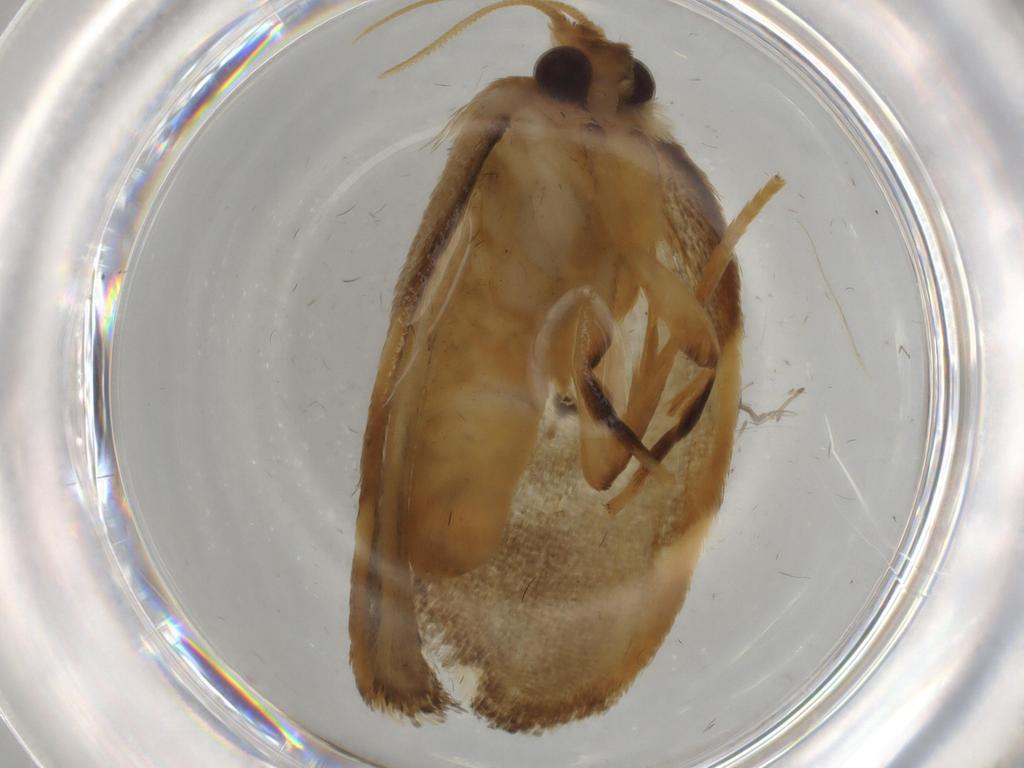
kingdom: Animalia
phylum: Arthropoda
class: Insecta
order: Lepidoptera
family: Psychidae
